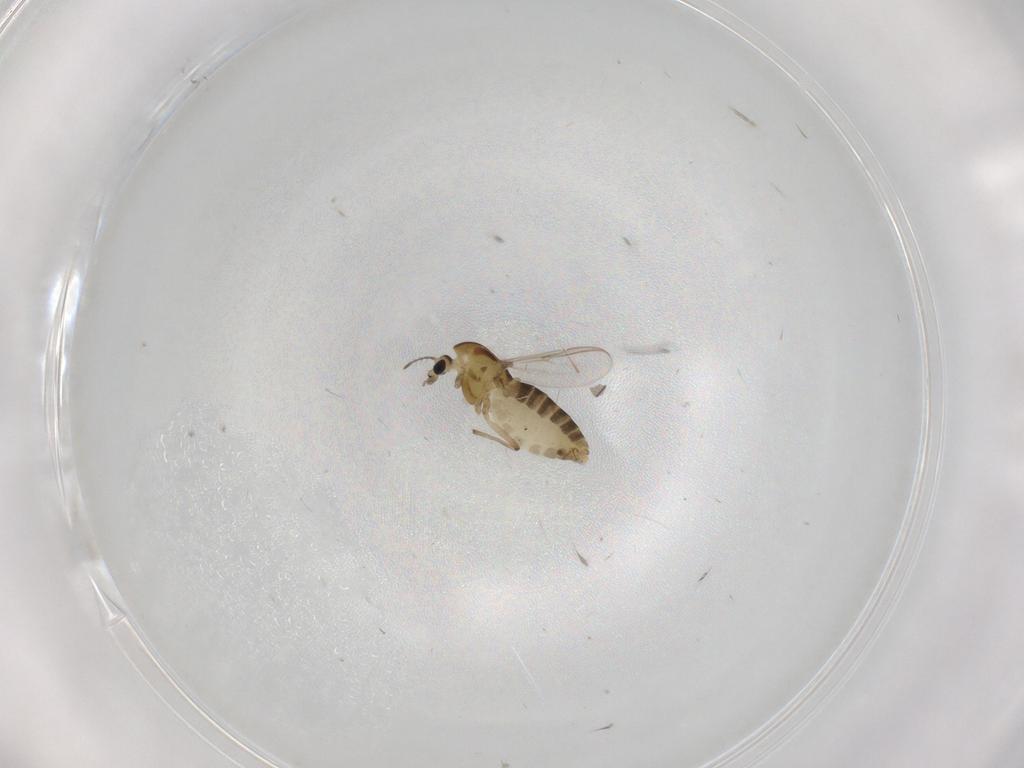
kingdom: Animalia
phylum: Arthropoda
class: Insecta
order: Diptera
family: Chironomidae
